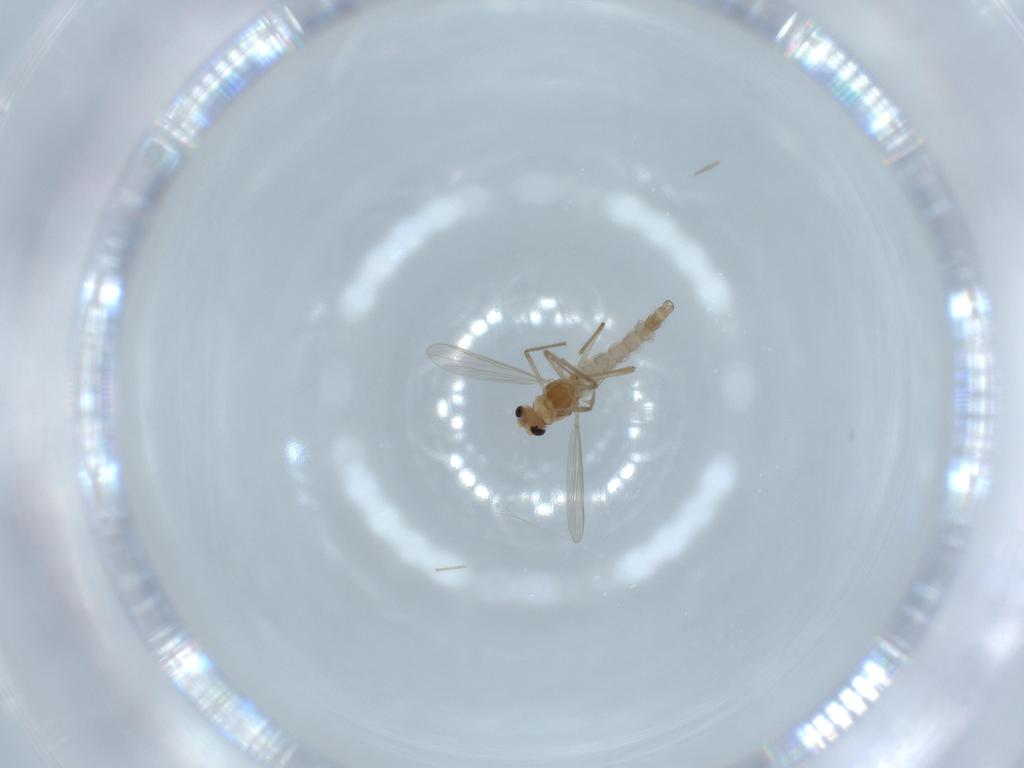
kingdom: Animalia
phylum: Arthropoda
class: Insecta
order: Diptera
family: Chironomidae
